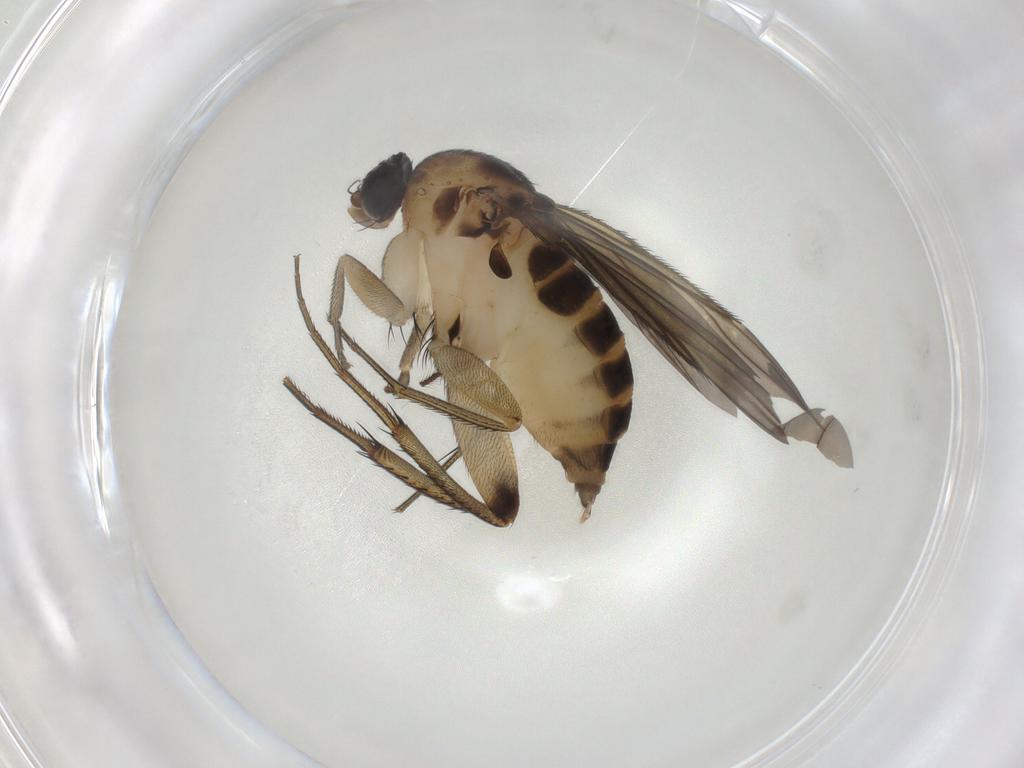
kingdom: Animalia
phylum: Arthropoda
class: Insecta
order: Diptera
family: Phoridae
